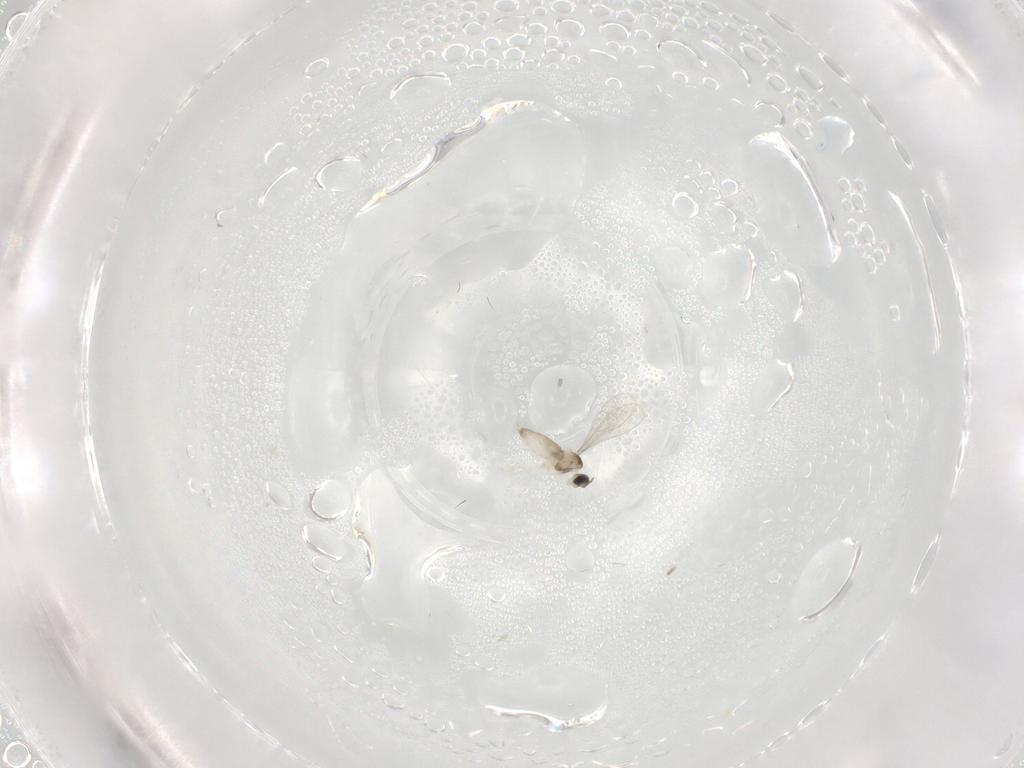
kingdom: Animalia
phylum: Arthropoda
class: Insecta
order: Diptera
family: Phoridae
